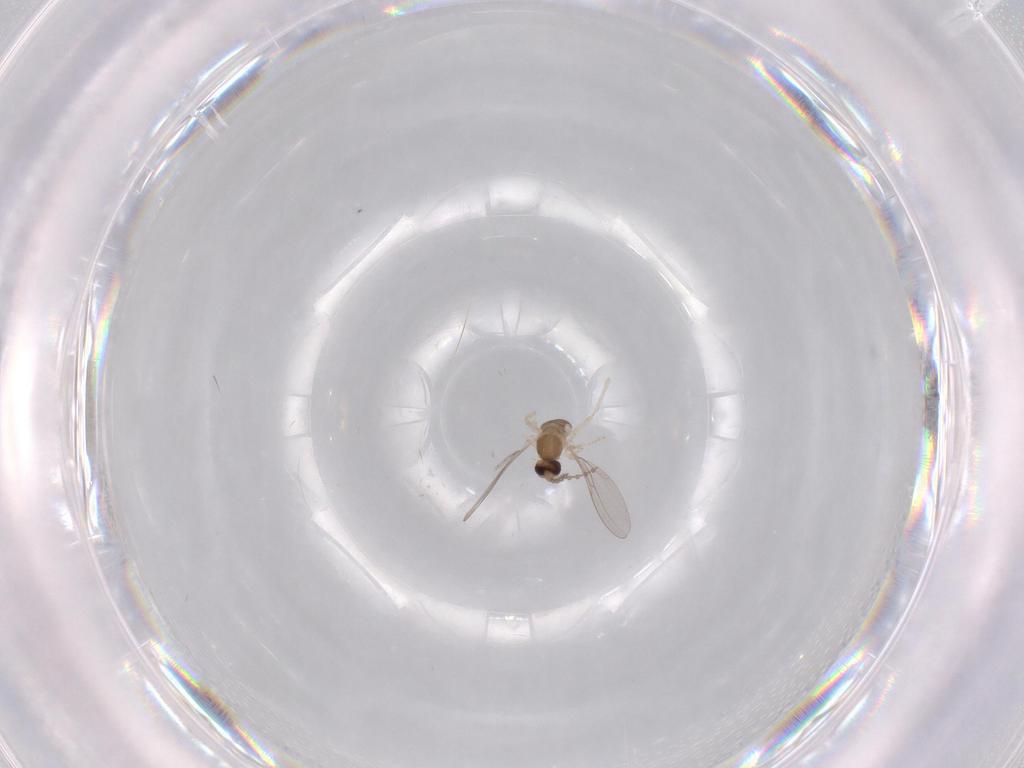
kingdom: Animalia
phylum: Arthropoda
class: Insecta
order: Diptera
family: Cecidomyiidae
